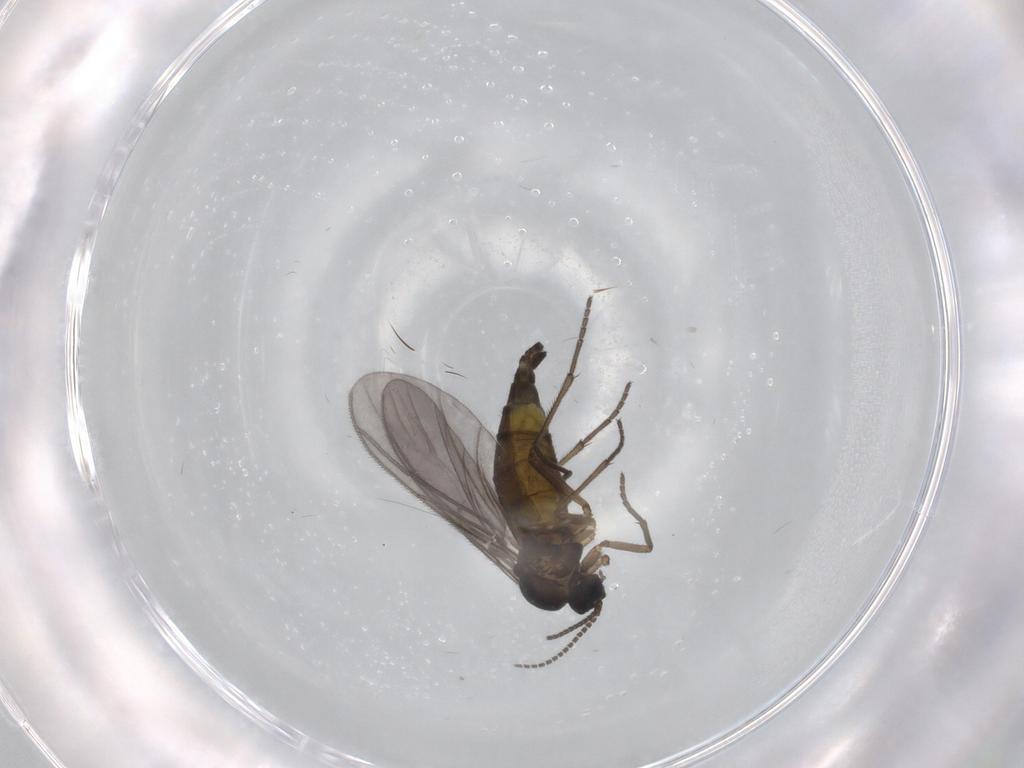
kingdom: Animalia
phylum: Arthropoda
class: Insecta
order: Diptera
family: Sciaridae
